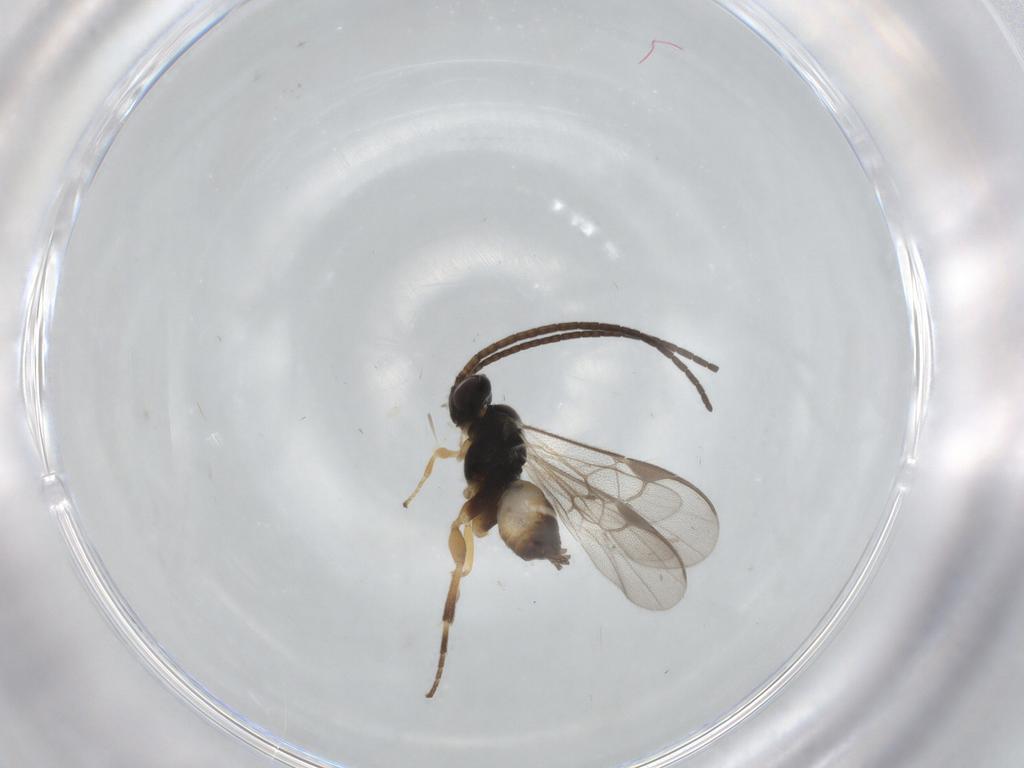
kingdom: Animalia
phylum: Arthropoda
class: Insecta
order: Hymenoptera
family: Braconidae
